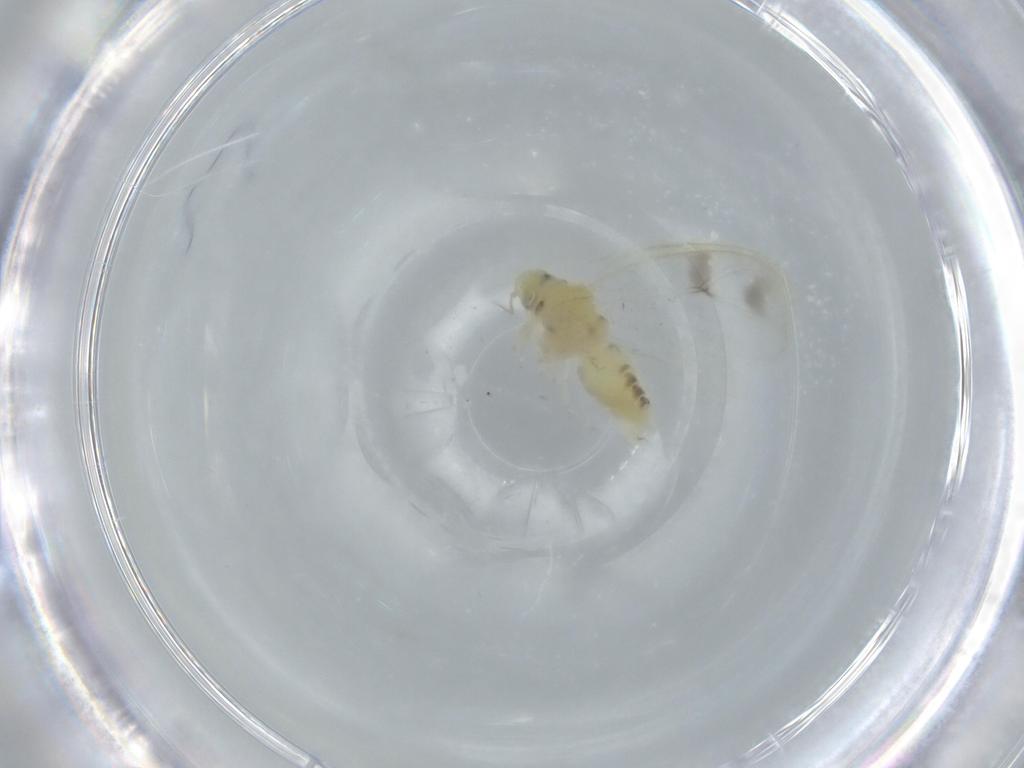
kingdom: Animalia
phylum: Arthropoda
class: Insecta
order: Hemiptera
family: Aleyrodidae
